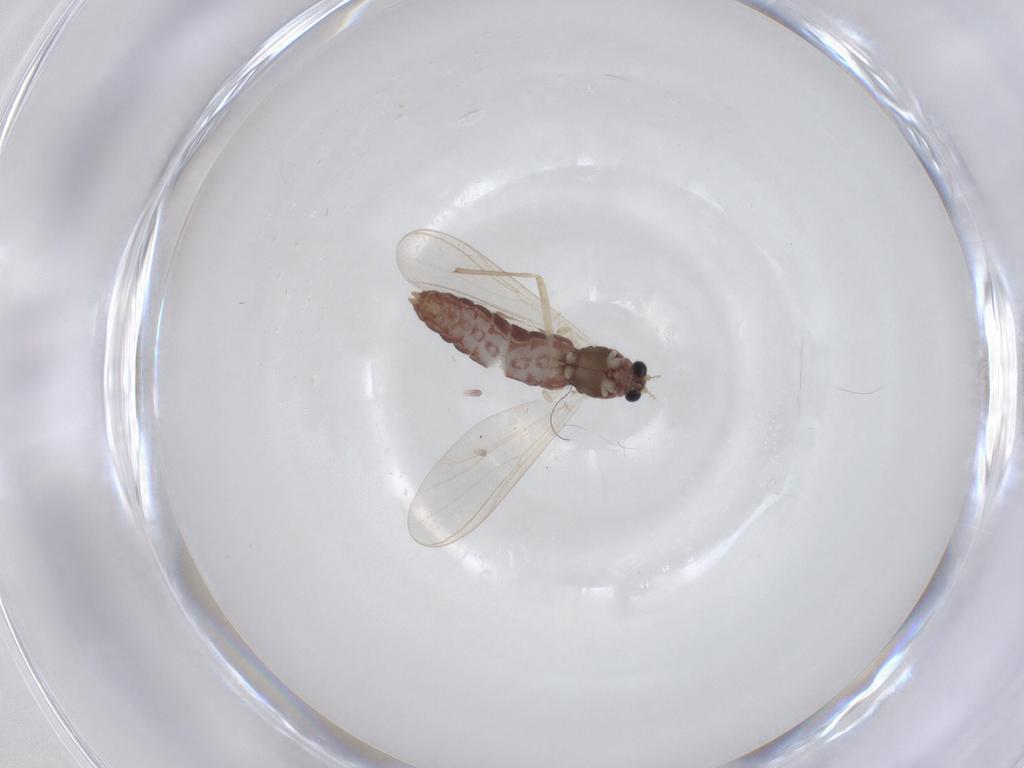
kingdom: Animalia
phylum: Arthropoda
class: Insecta
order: Diptera
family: Chironomidae
